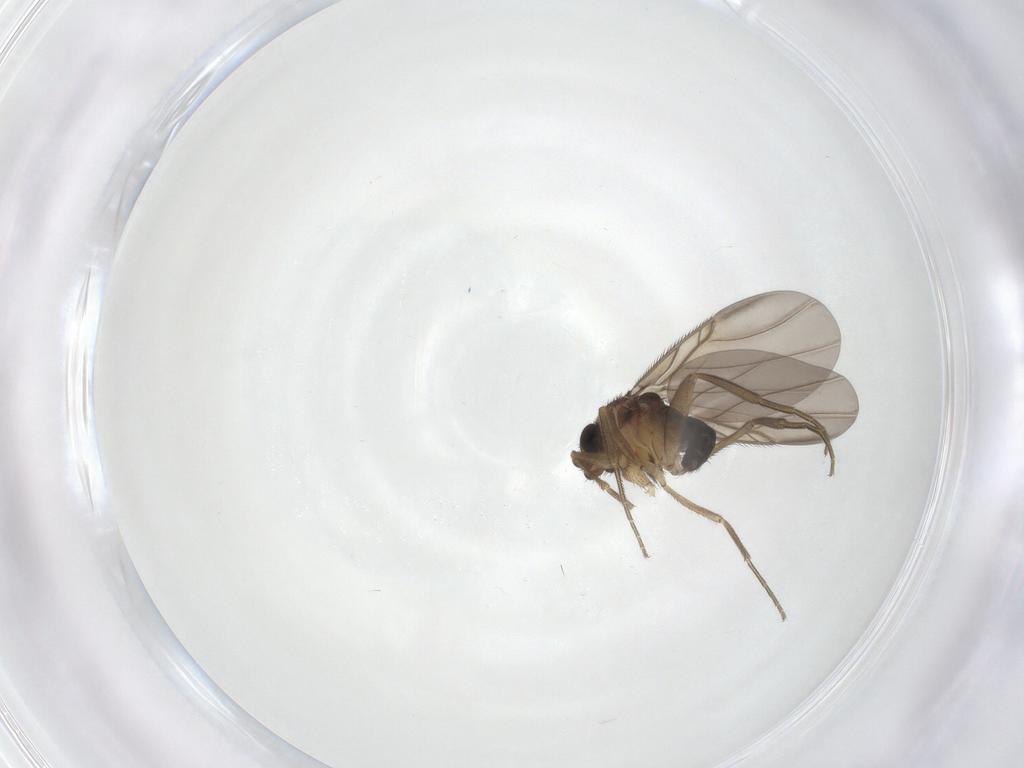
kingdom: Animalia
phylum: Arthropoda
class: Insecta
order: Diptera
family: Phoridae
